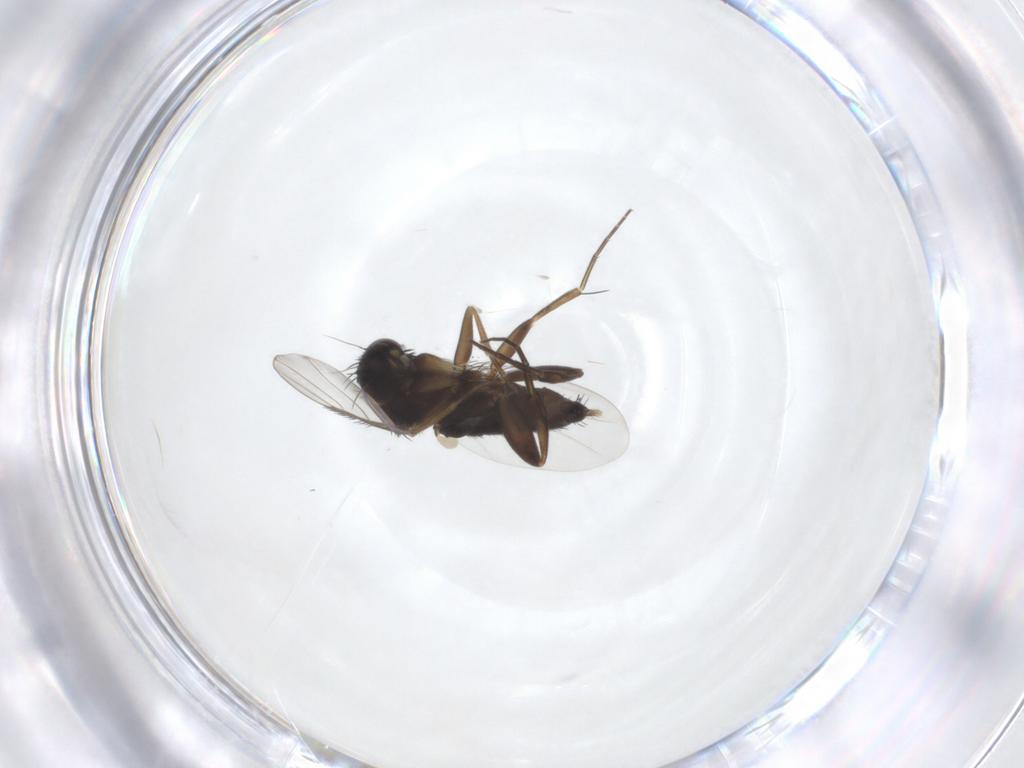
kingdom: Animalia
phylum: Arthropoda
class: Insecta
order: Diptera
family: Phoridae
